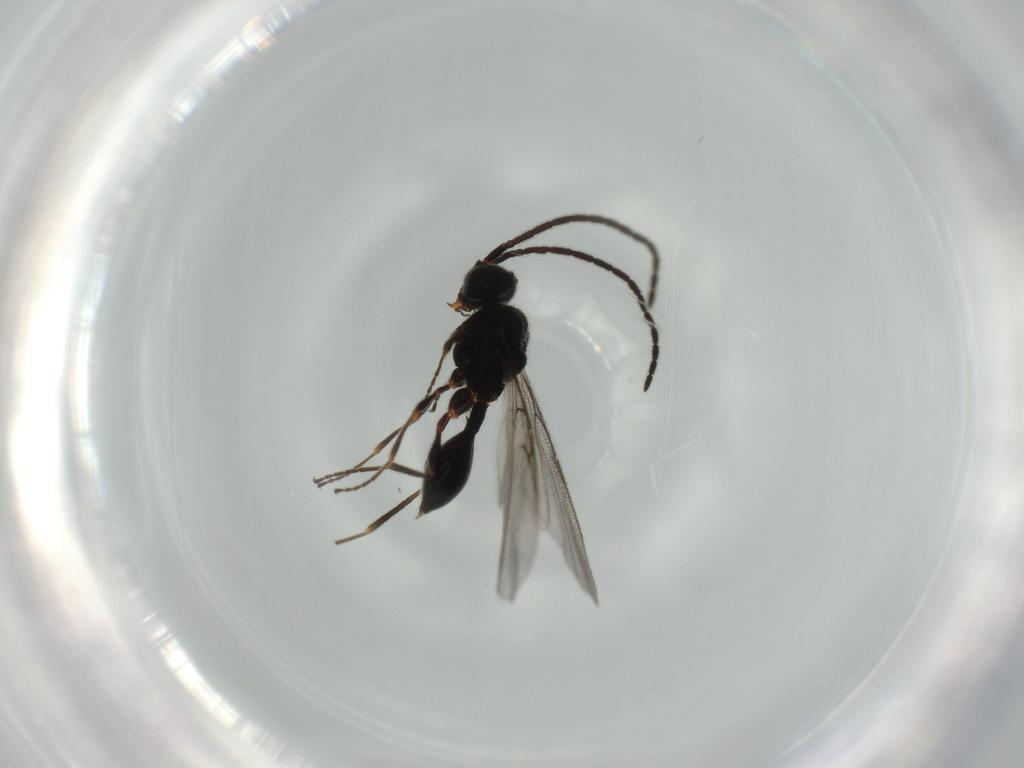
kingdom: Animalia
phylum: Arthropoda
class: Insecta
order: Hymenoptera
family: Diapriidae
